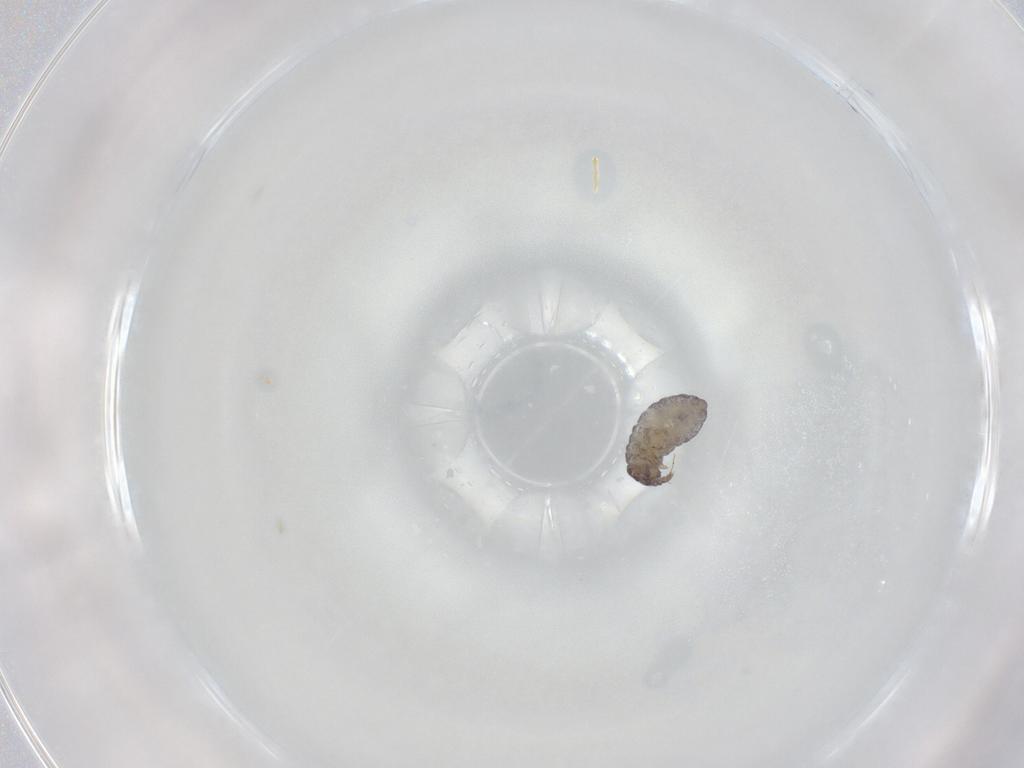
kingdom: Animalia
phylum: Arthropoda
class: Collembola
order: Poduromorpha
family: Hypogastruridae
